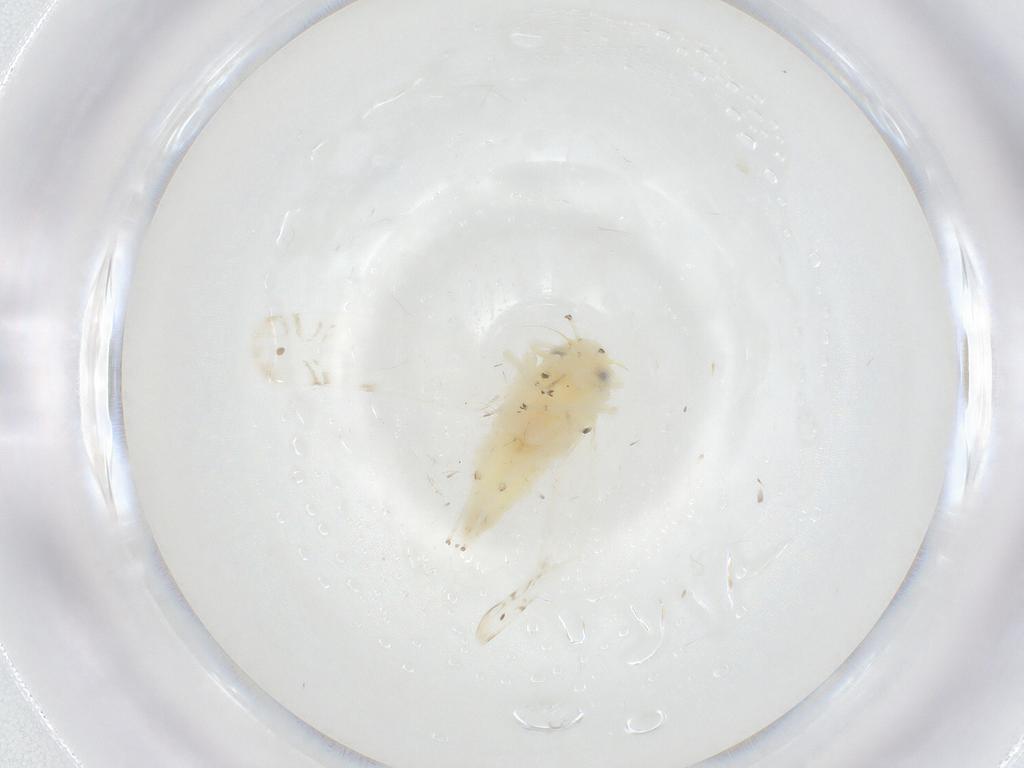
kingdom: Animalia
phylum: Arthropoda
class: Insecta
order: Hemiptera
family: Cicadellidae
